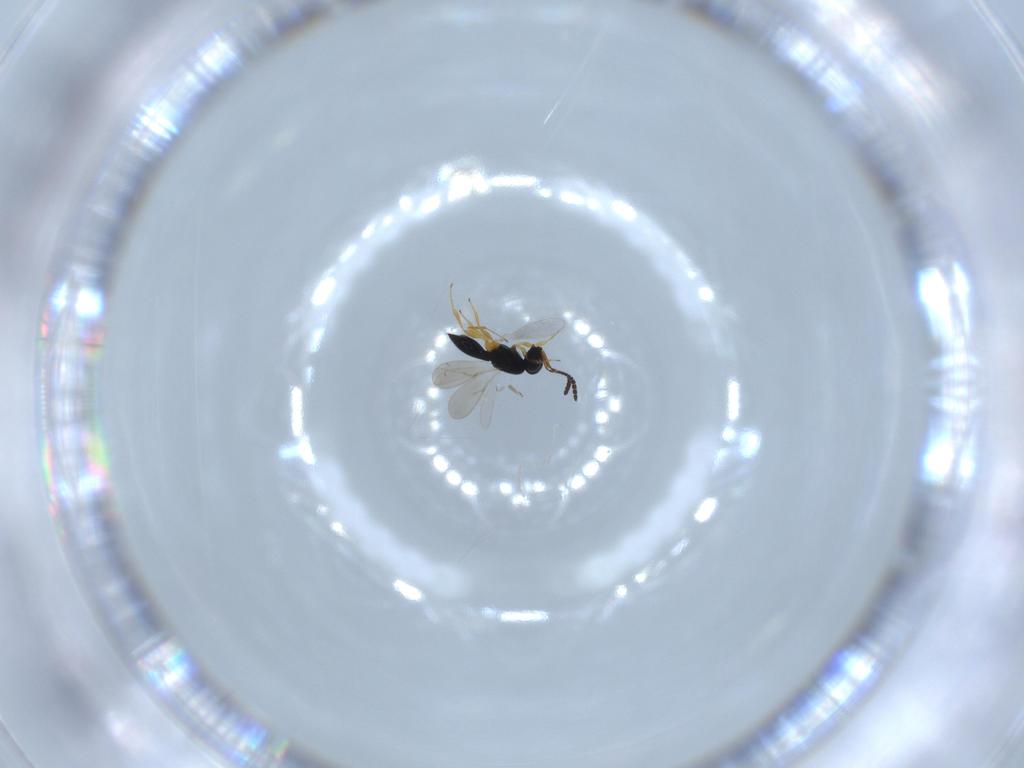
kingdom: Animalia
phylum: Arthropoda
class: Insecta
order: Hymenoptera
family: Scelionidae
